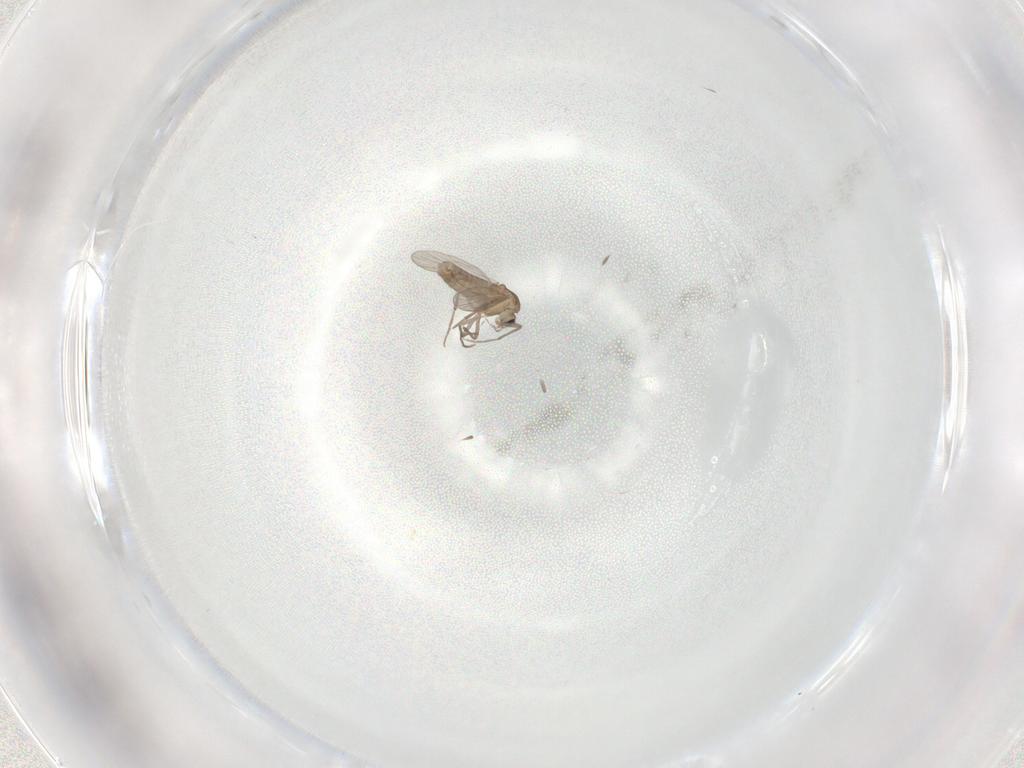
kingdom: Animalia
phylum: Arthropoda
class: Insecta
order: Diptera
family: Chironomidae
